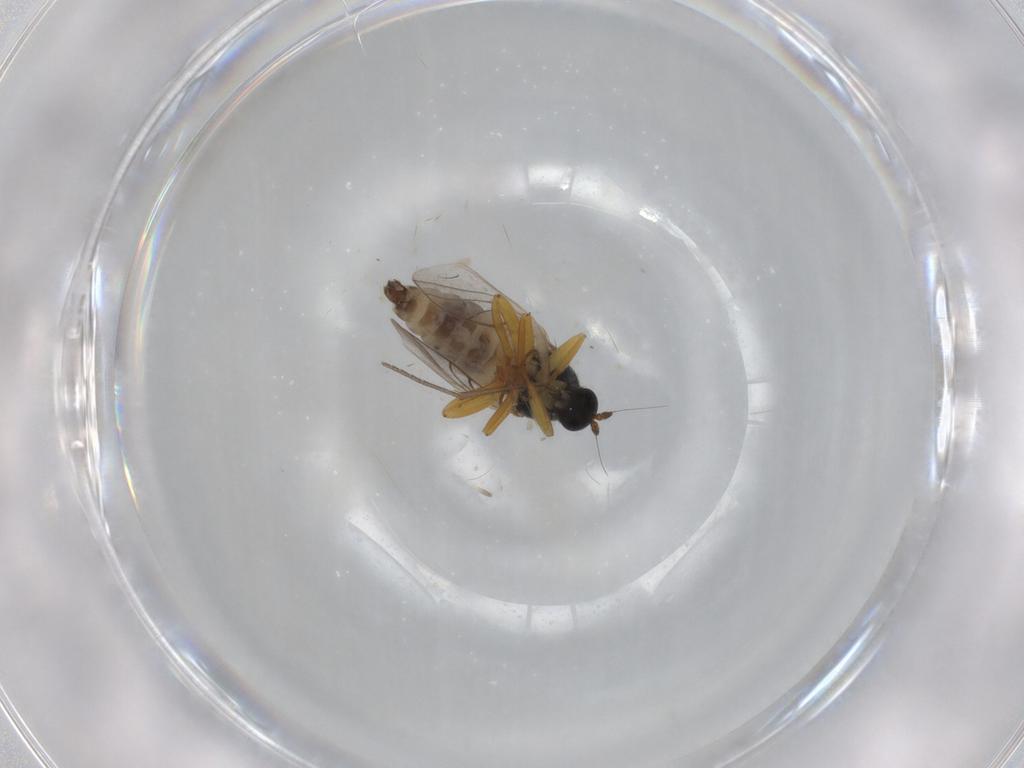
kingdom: Animalia
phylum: Arthropoda
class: Insecta
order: Diptera
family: Hybotidae
